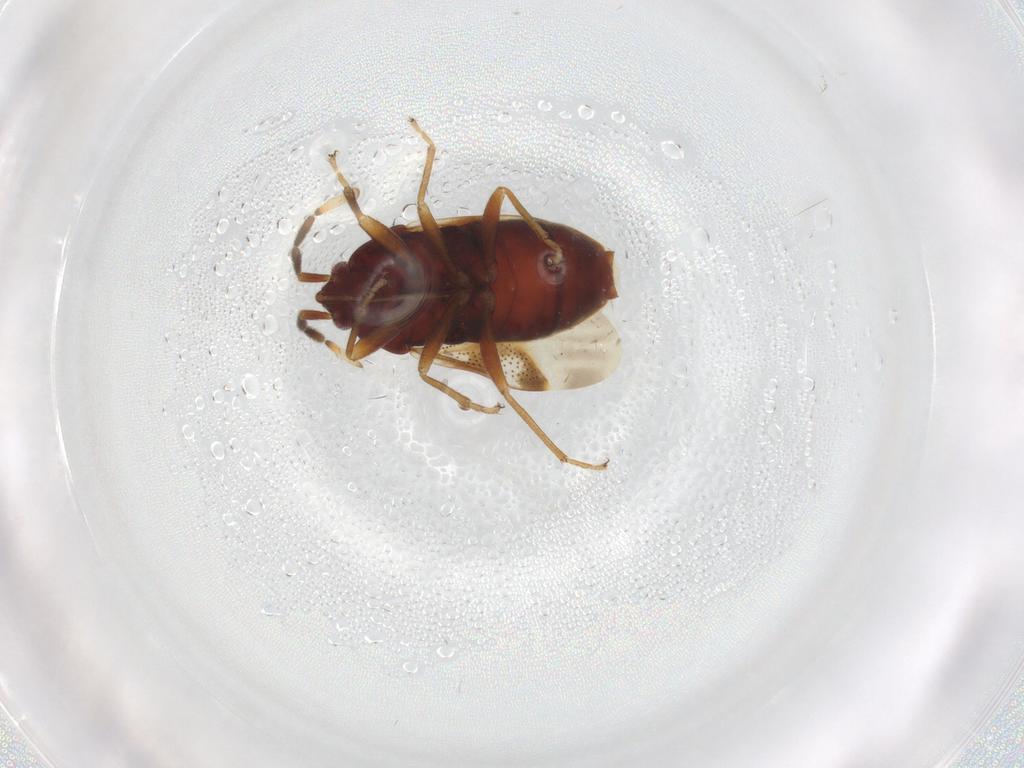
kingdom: Animalia
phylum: Arthropoda
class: Insecta
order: Hemiptera
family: Rhyparochromidae
